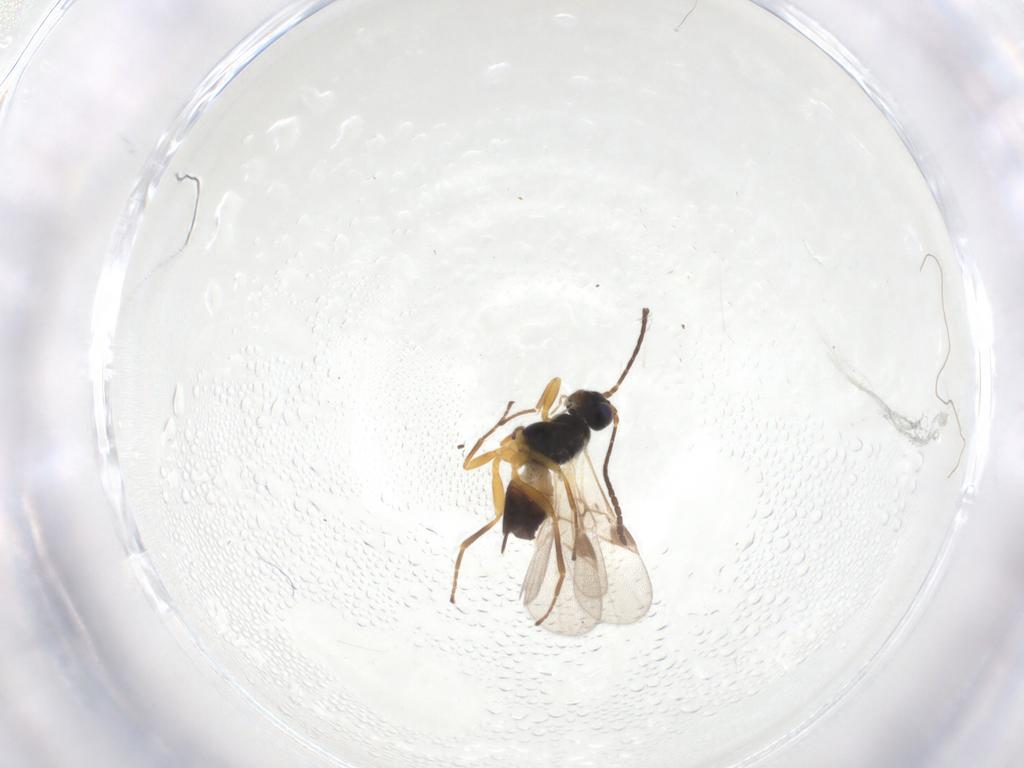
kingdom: Animalia
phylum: Arthropoda
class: Insecta
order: Hymenoptera
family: Braconidae
